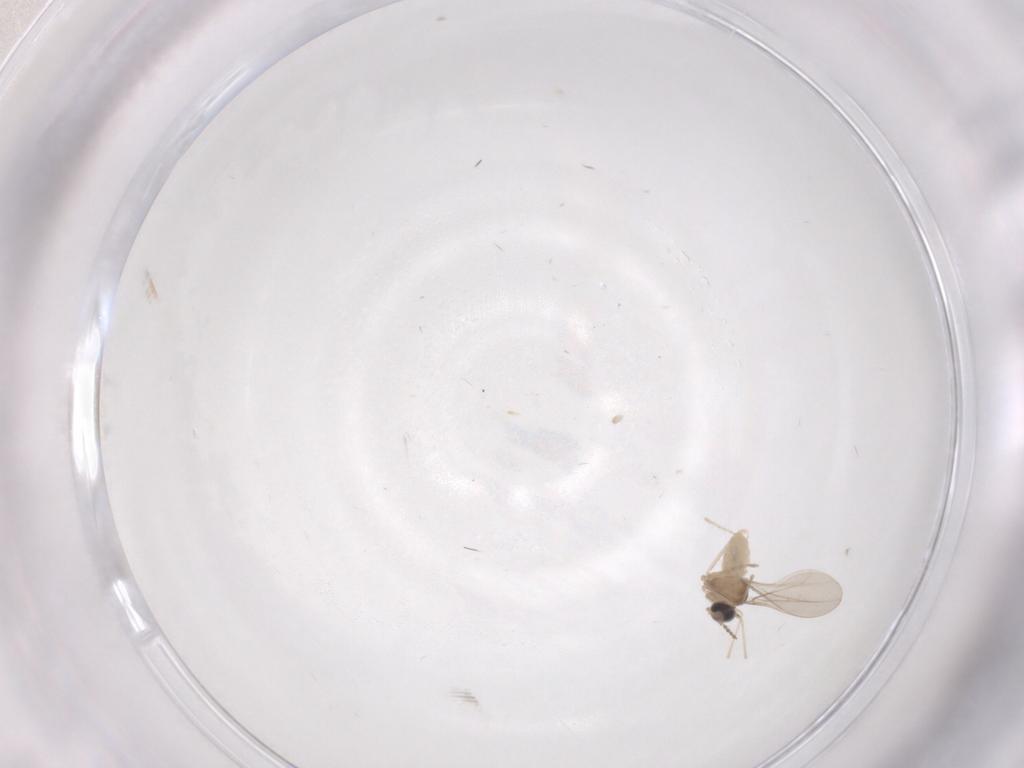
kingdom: Animalia
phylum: Arthropoda
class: Insecta
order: Diptera
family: Cecidomyiidae
